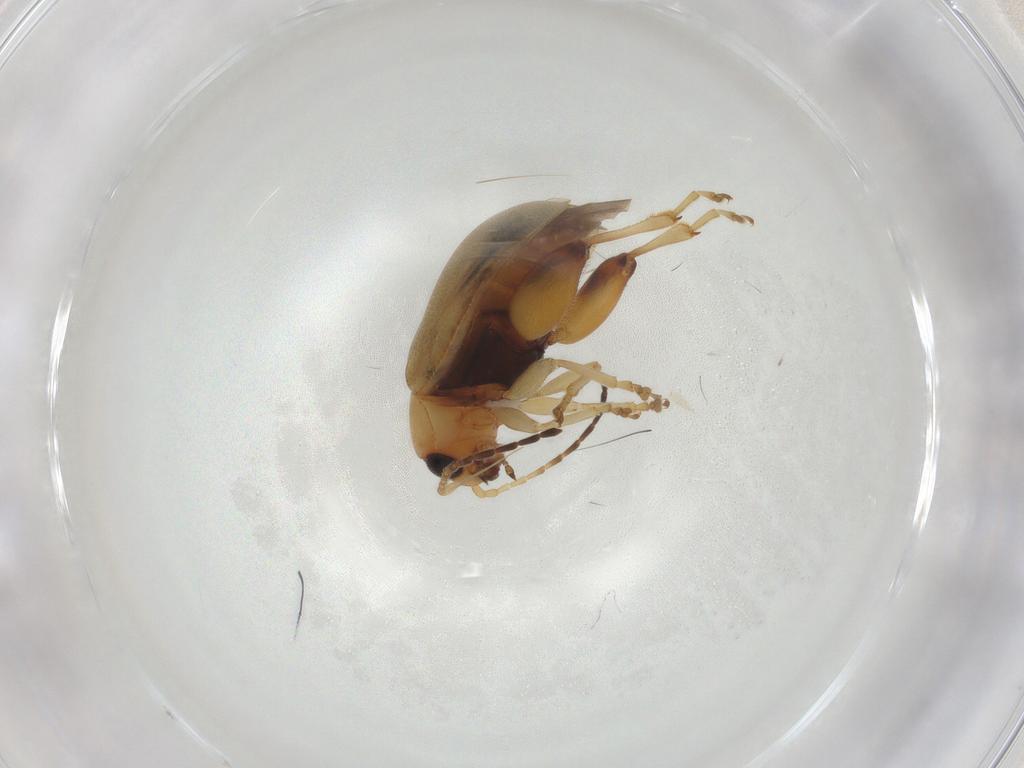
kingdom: Animalia
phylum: Arthropoda
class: Insecta
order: Coleoptera
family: Chrysomelidae
